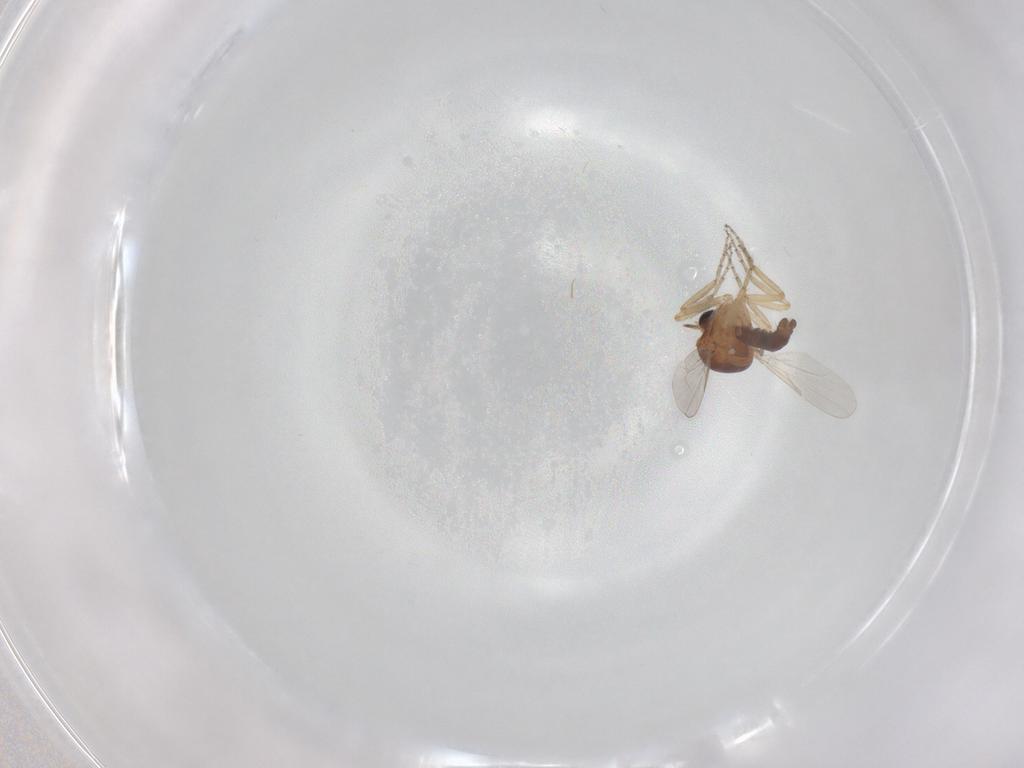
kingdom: Animalia
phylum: Arthropoda
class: Insecta
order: Diptera
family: Ceratopogonidae
